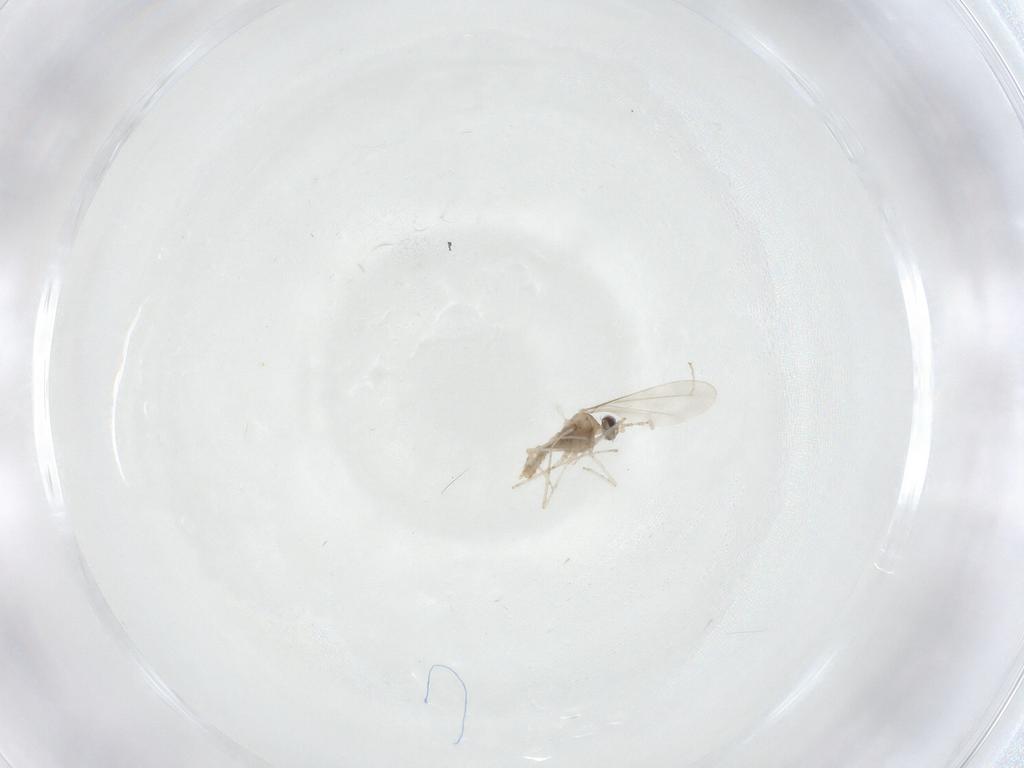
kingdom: Animalia
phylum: Arthropoda
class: Insecta
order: Diptera
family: Cecidomyiidae
